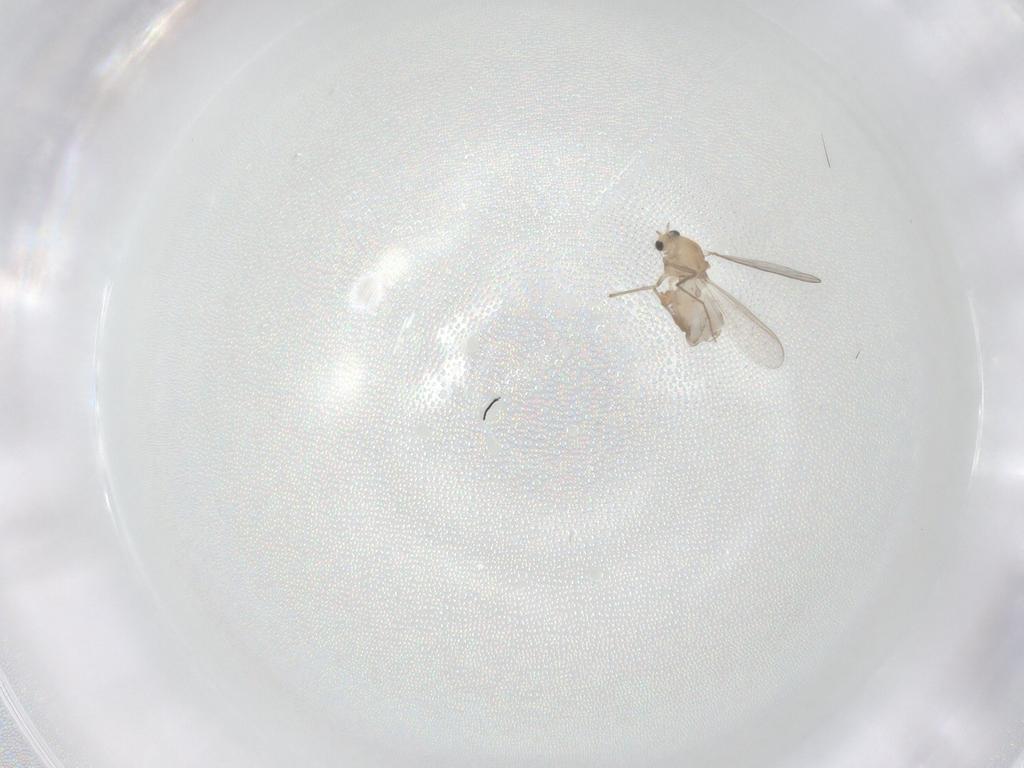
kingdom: Animalia
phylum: Arthropoda
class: Insecta
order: Diptera
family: Chironomidae
